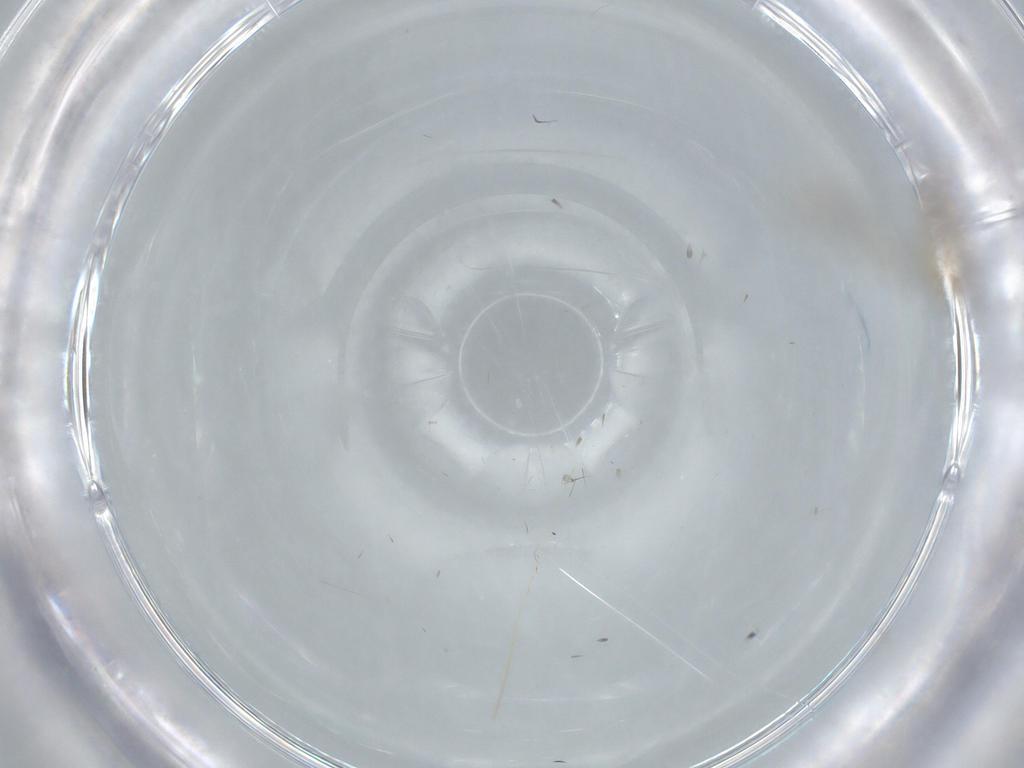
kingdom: Animalia
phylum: Arthropoda
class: Insecta
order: Diptera
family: Cecidomyiidae
